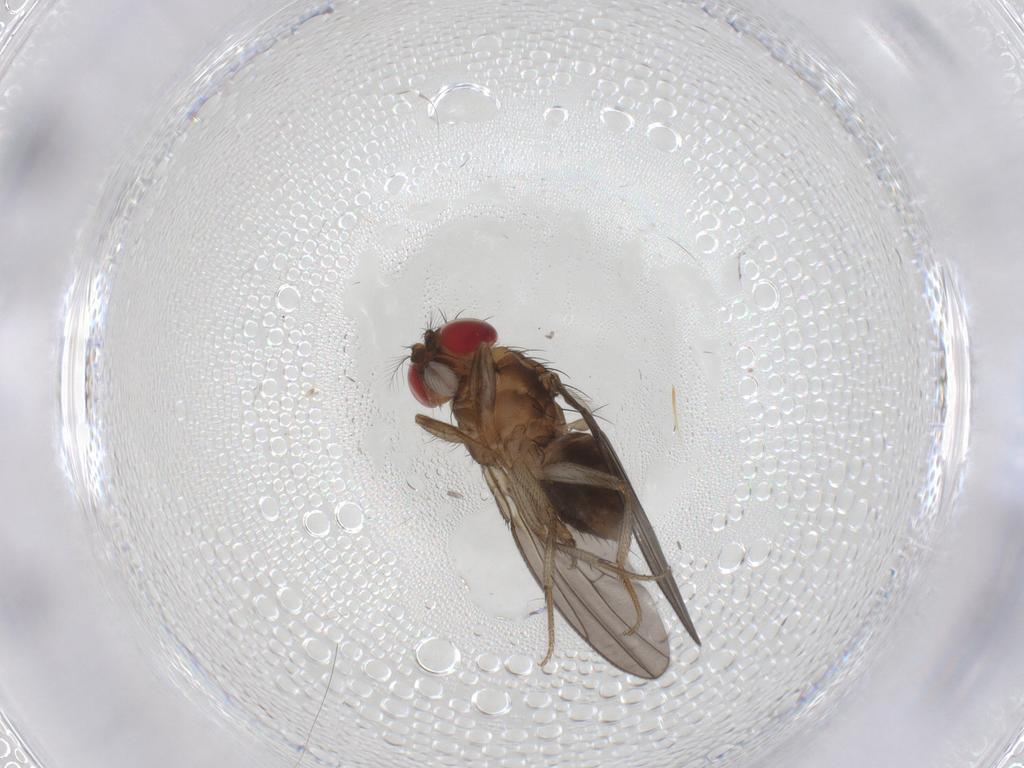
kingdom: Animalia
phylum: Arthropoda
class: Insecta
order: Diptera
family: Drosophilidae
